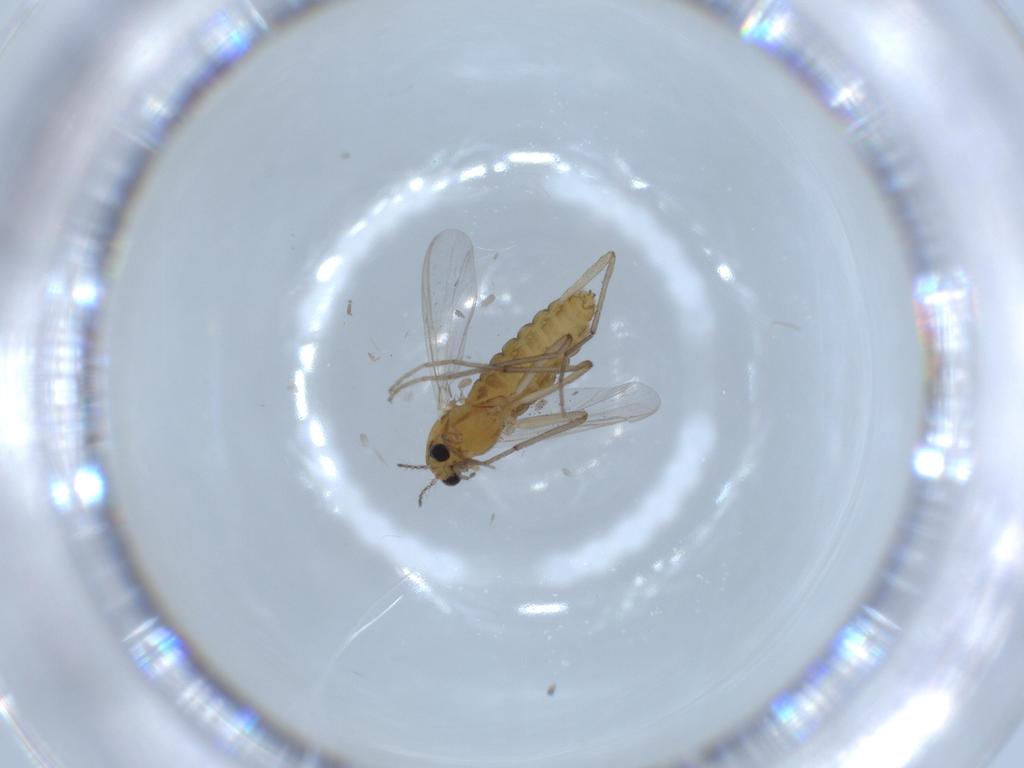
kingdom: Animalia
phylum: Arthropoda
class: Insecta
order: Diptera
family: Chironomidae
